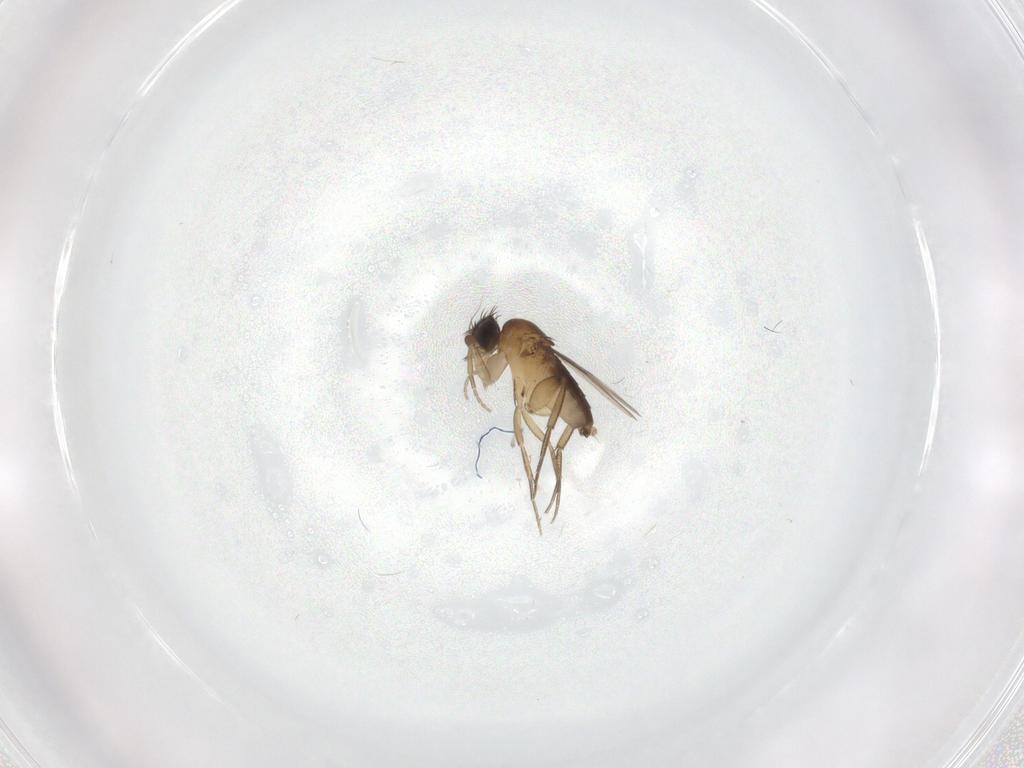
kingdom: Animalia
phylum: Arthropoda
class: Insecta
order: Diptera
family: Phoridae
